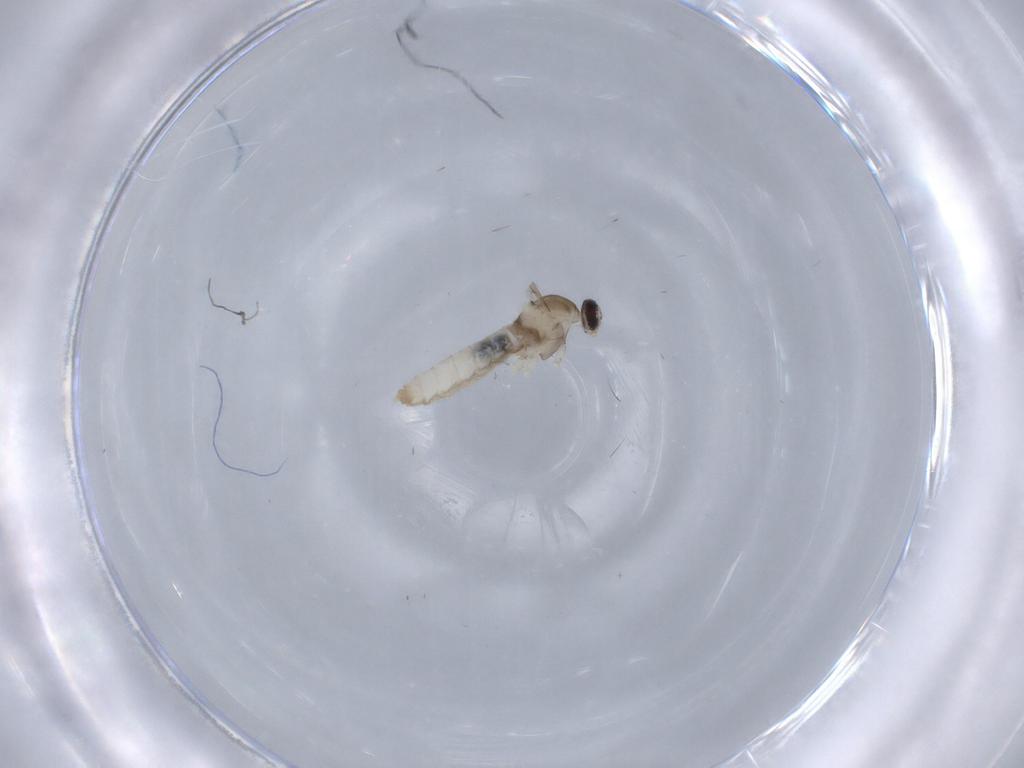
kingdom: Animalia
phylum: Arthropoda
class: Insecta
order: Diptera
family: Cecidomyiidae
